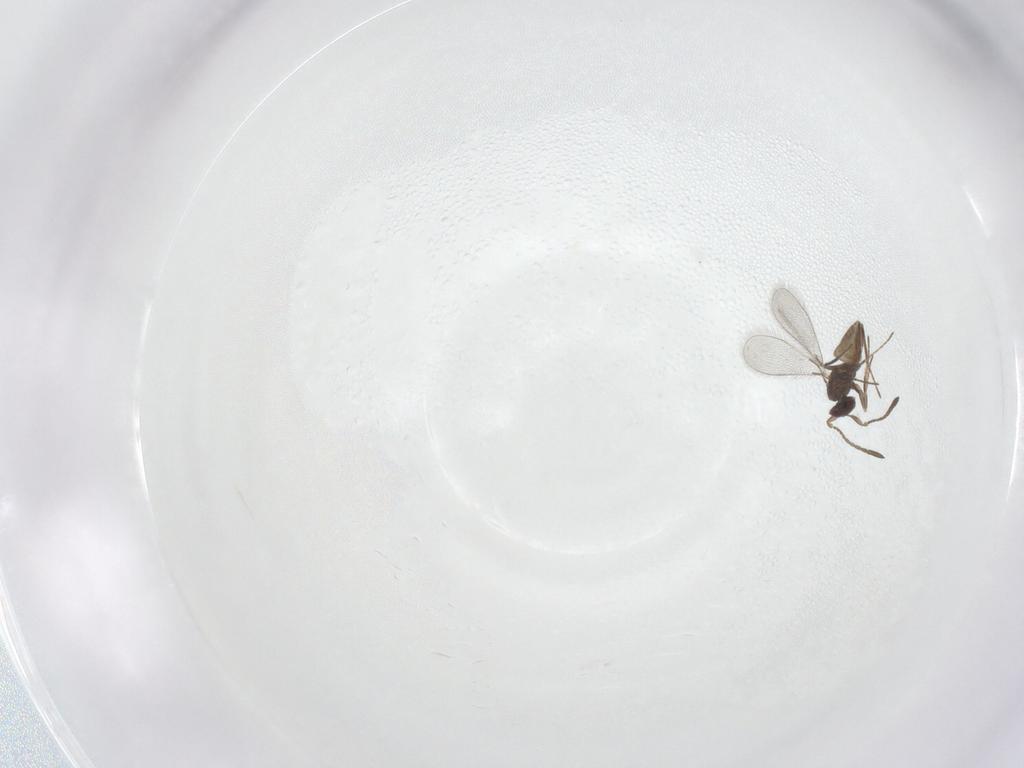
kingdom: Animalia
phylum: Arthropoda
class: Insecta
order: Hymenoptera
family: Mymaridae
